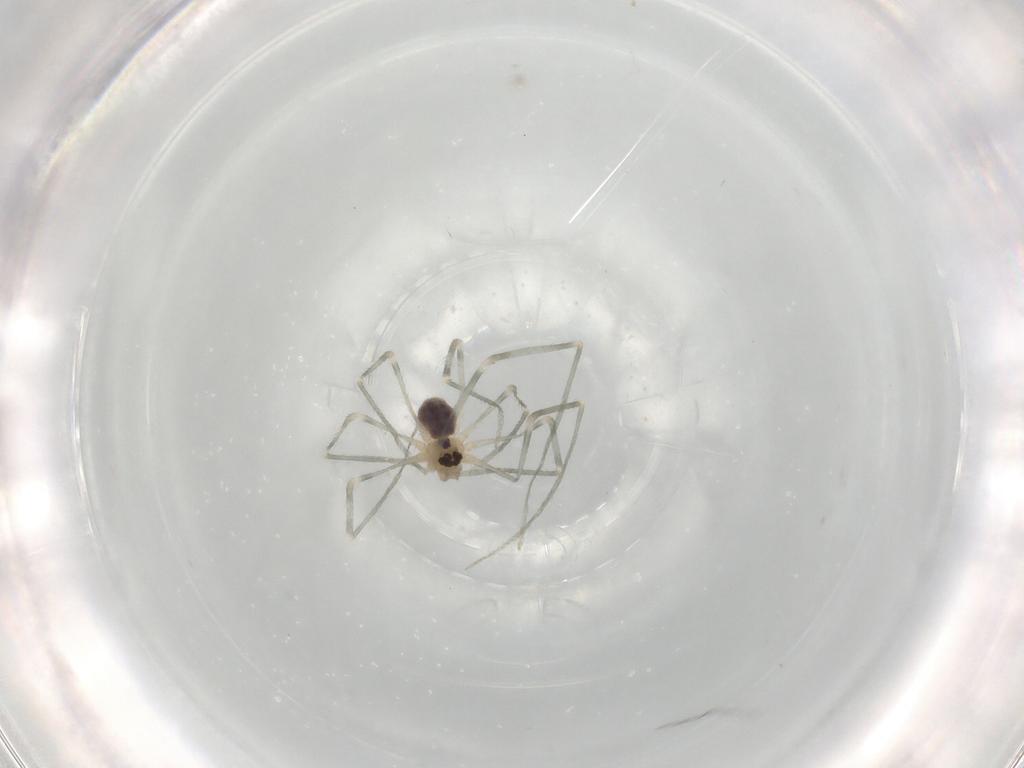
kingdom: Animalia
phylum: Arthropoda
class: Arachnida
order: Araneae
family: Pholcidae
